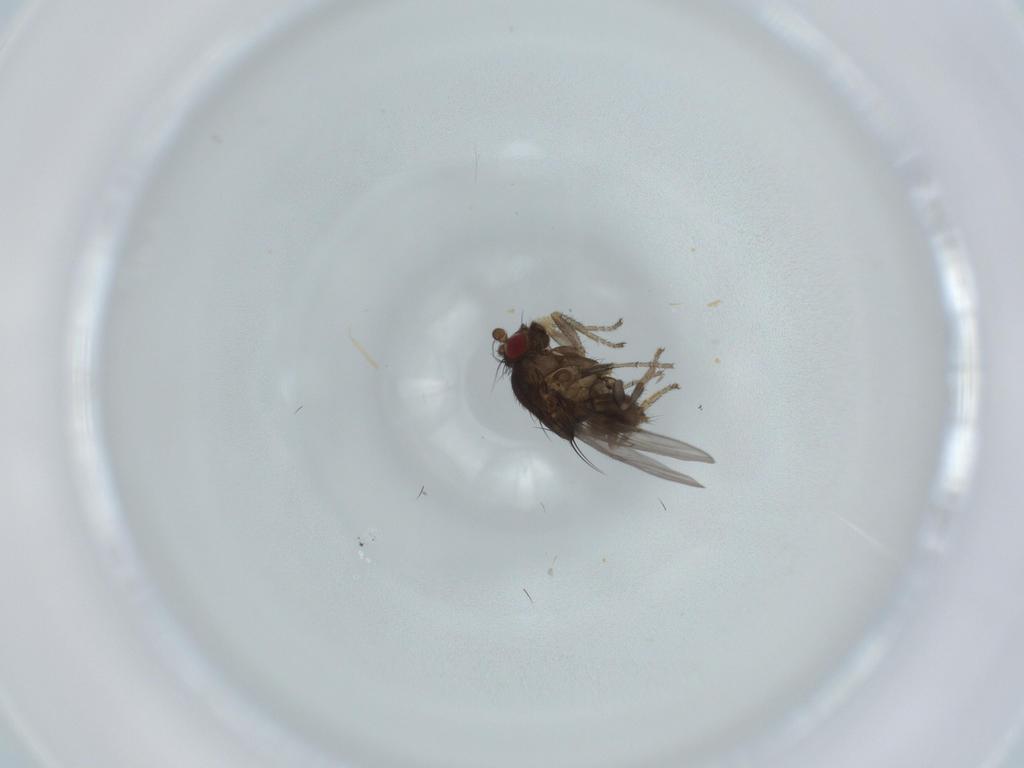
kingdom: Animalia
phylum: Arthropoda
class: Insecta
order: Diptera
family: Sphaeroceridae
